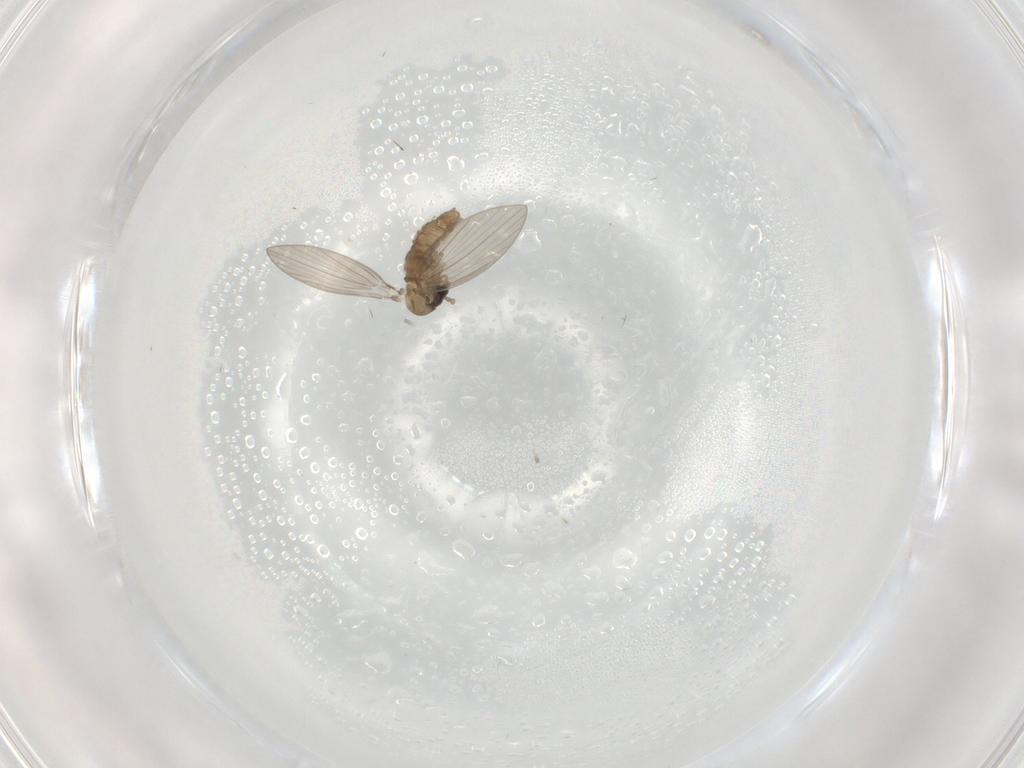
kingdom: Animalia
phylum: Arthropoda
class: Insecta
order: Diptera
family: Psychodidae
